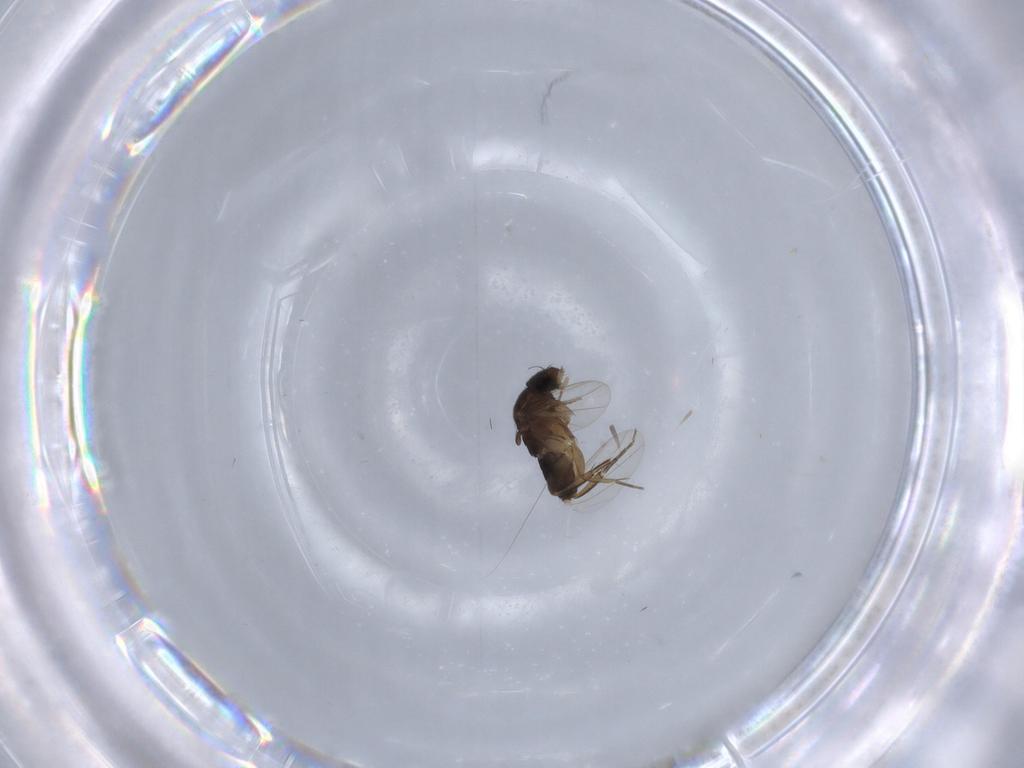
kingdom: Animalia
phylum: Arthropoda
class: Insecta
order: Diptera
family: Phoridae
